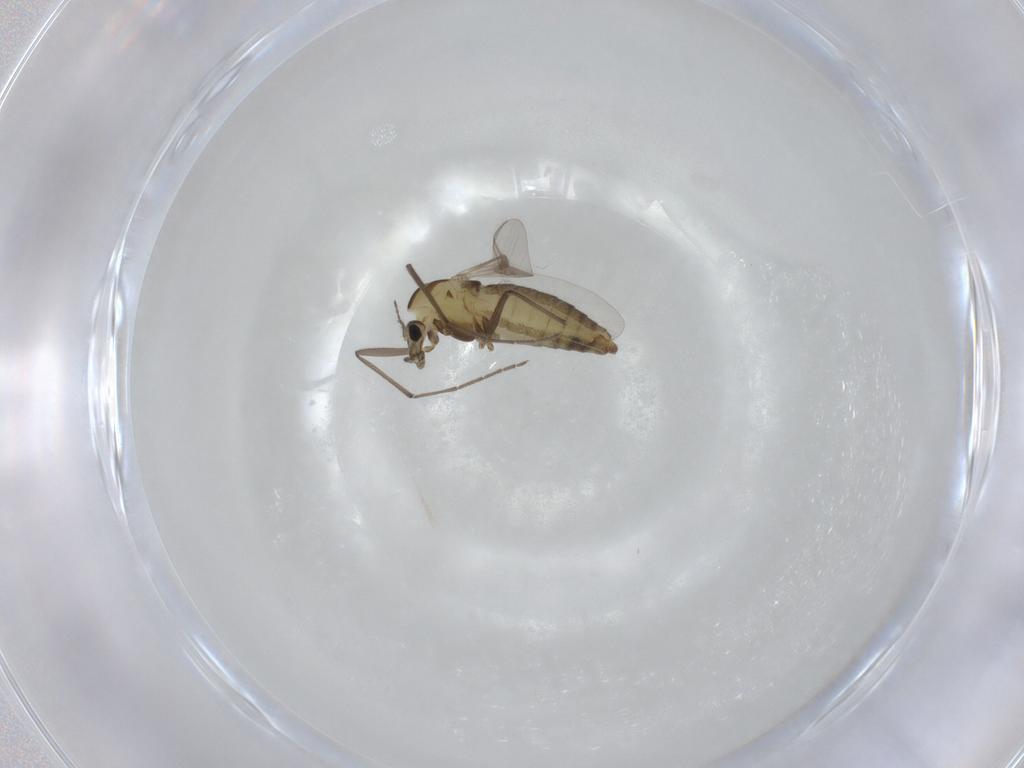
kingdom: Animalia
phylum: Arthropoda
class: Insecta
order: Diptera
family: Chironomidae
